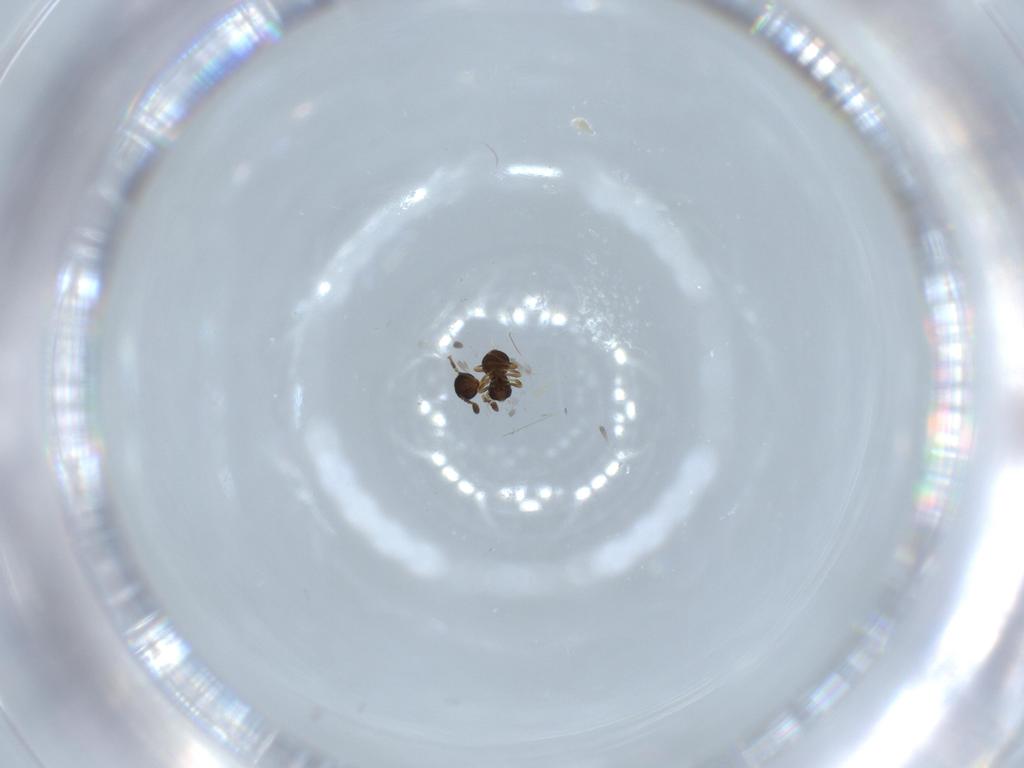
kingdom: Animalia
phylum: Arthropoda
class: Insecta
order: Hymenoptera
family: Scelionidae
